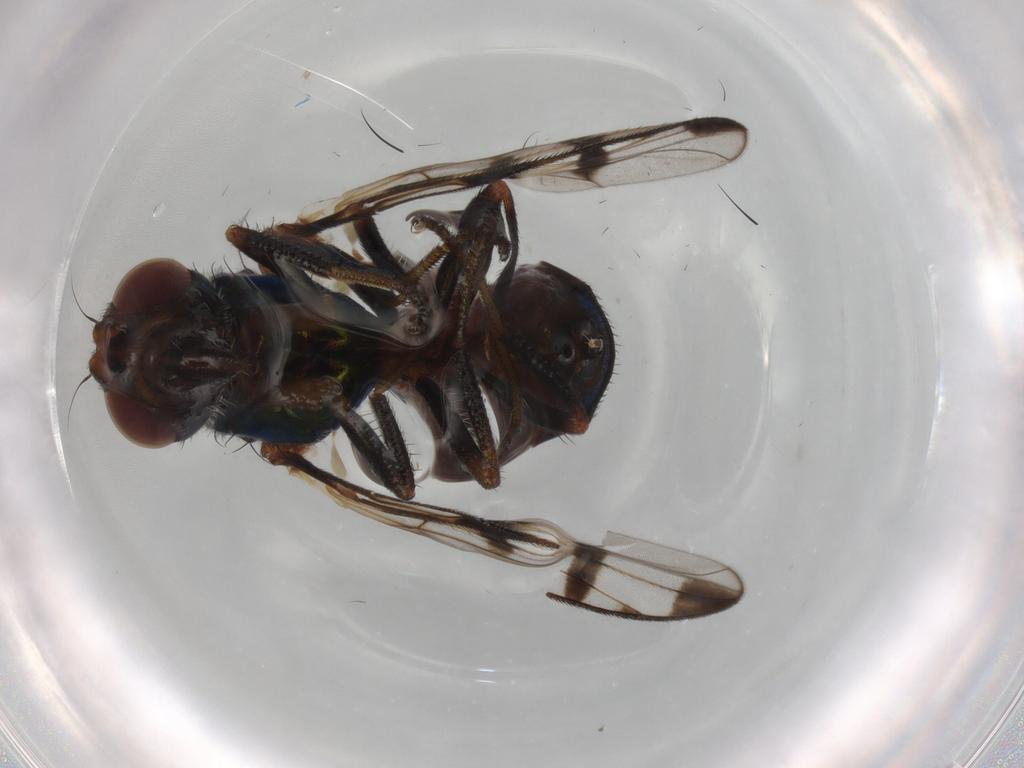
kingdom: Animalia
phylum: Arthropoda
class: Insecta
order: Diptera
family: Platystomatidae
